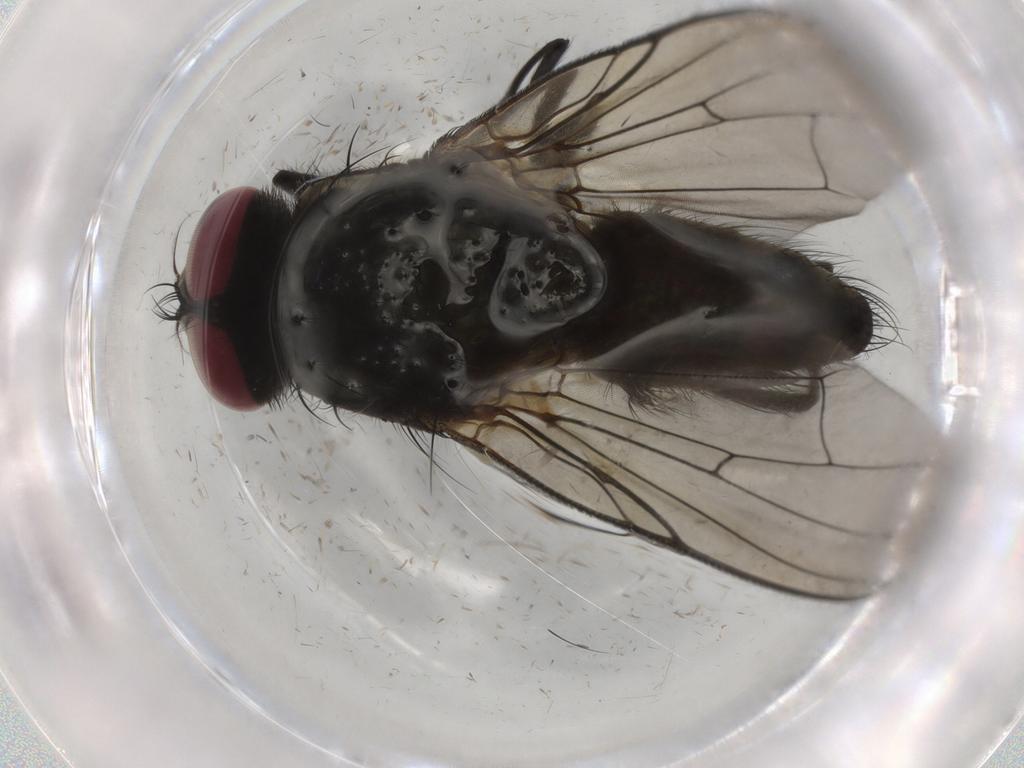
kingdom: Animalia
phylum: Arthropoda
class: Insecta
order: Diptera
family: Muscidae
